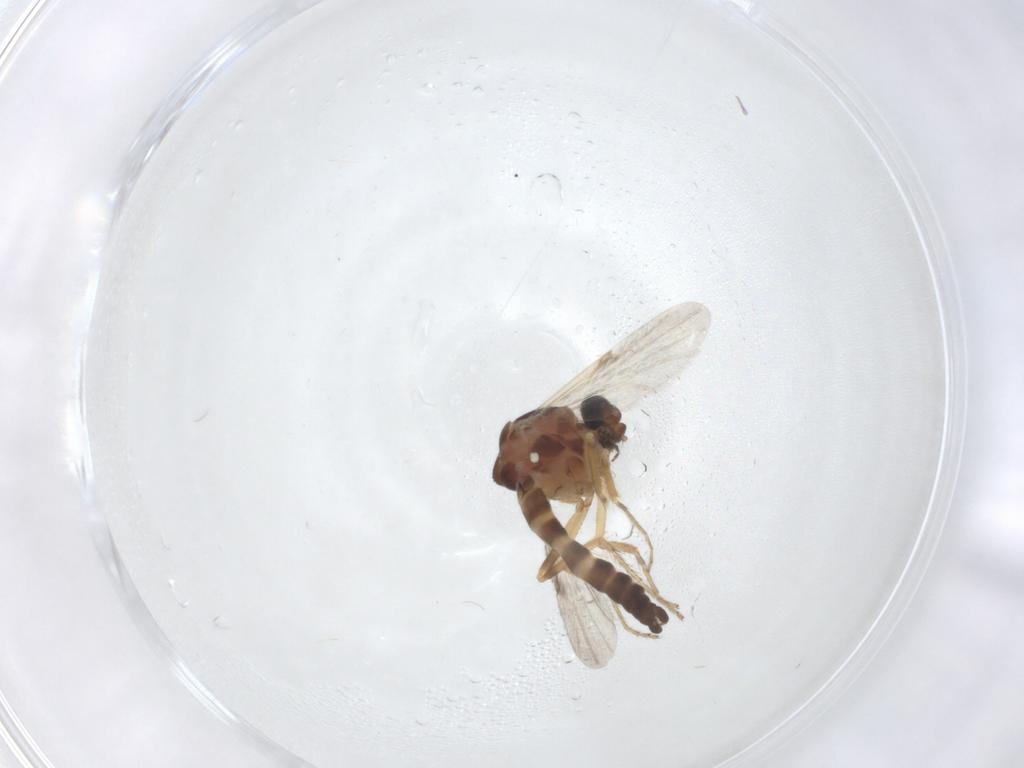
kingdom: Animalia
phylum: Arthropoda
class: Insecta
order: Diptera
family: Ceratopogonidae
